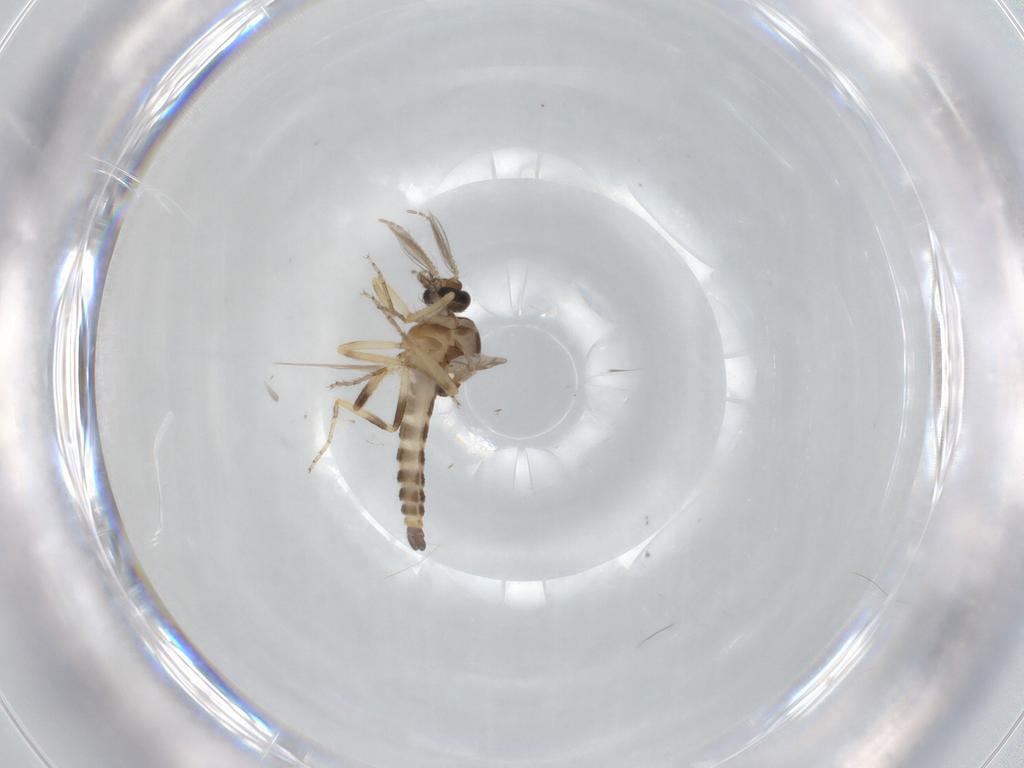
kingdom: Animalia
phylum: Arthropoda
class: Insecta
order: Diptera
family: Ceratopogonidae
